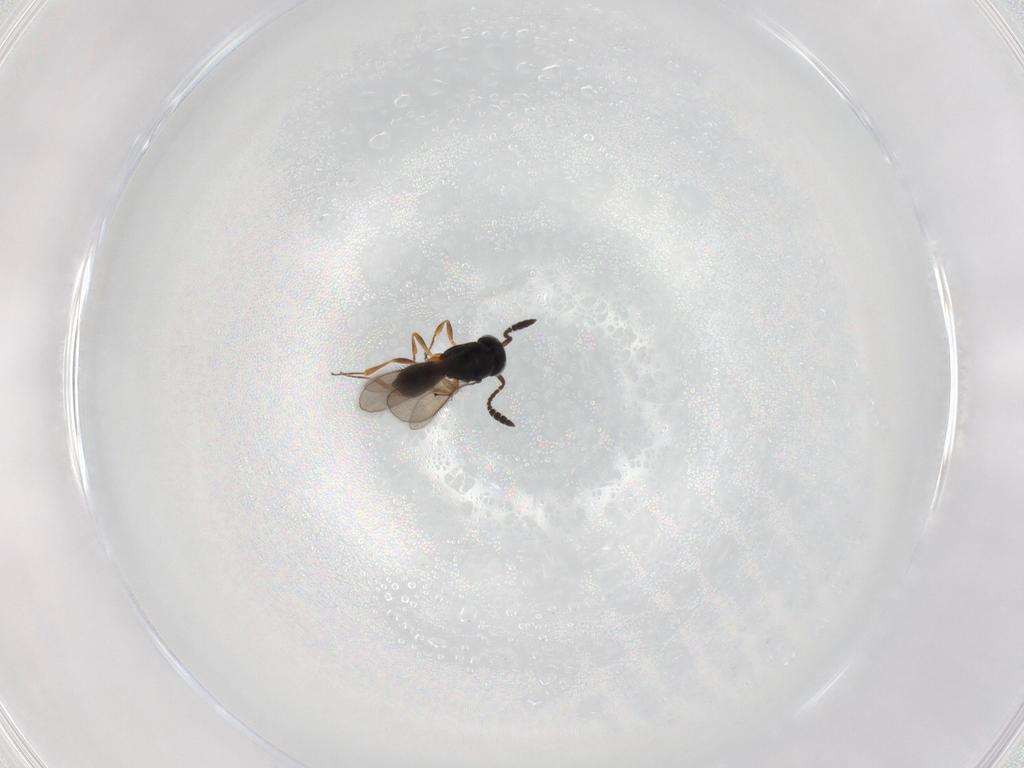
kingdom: Animalia
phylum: Arthropoda
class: Insecta
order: Hymenoptera
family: Scelionidae
